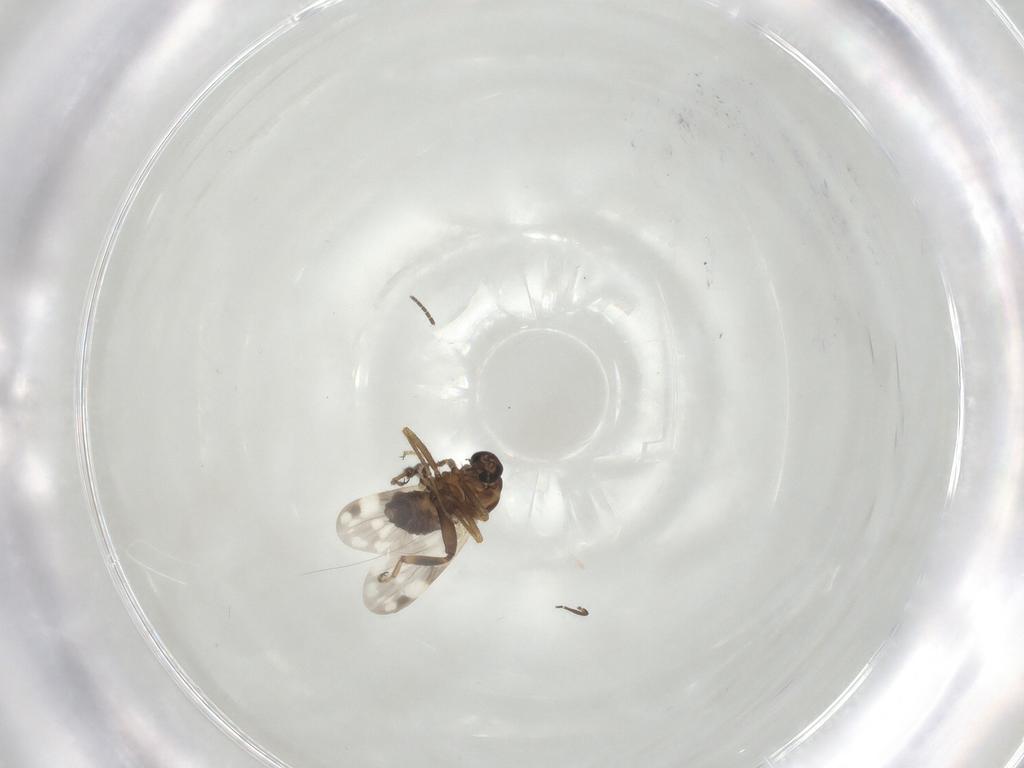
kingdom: Animalia
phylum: Arthropoda
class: Insecta
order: Diptera
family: Ceratopogonidae
